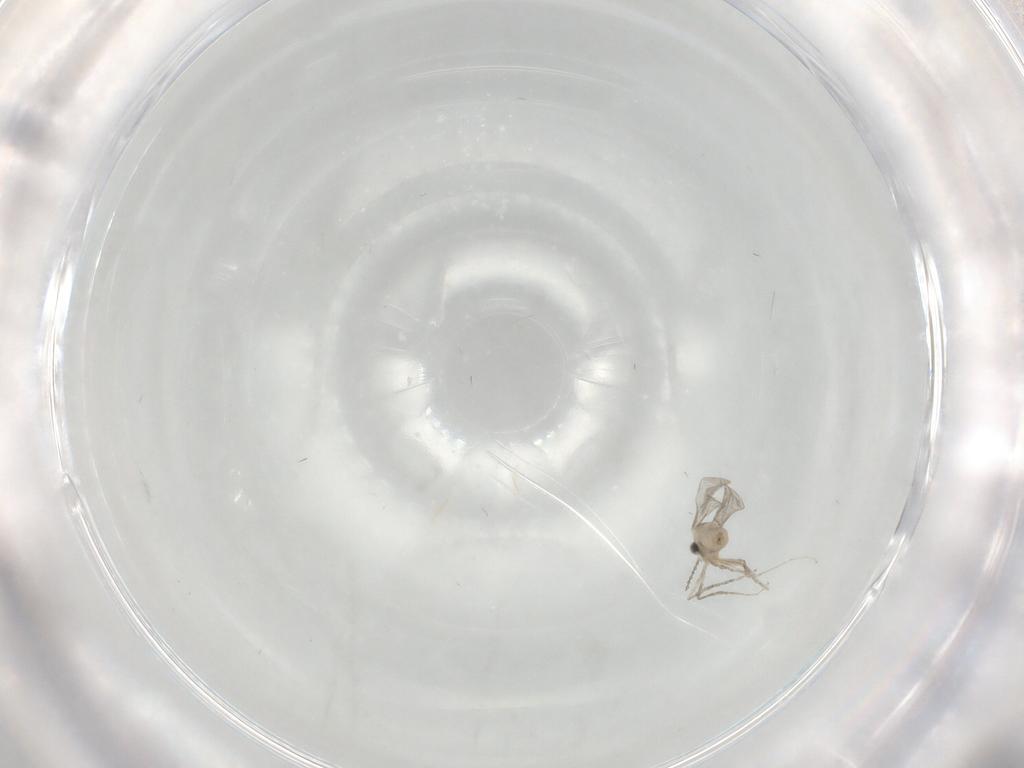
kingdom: Animalia
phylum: Arthropoda
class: Insecta
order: Diptera
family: Cecidomyiidae
